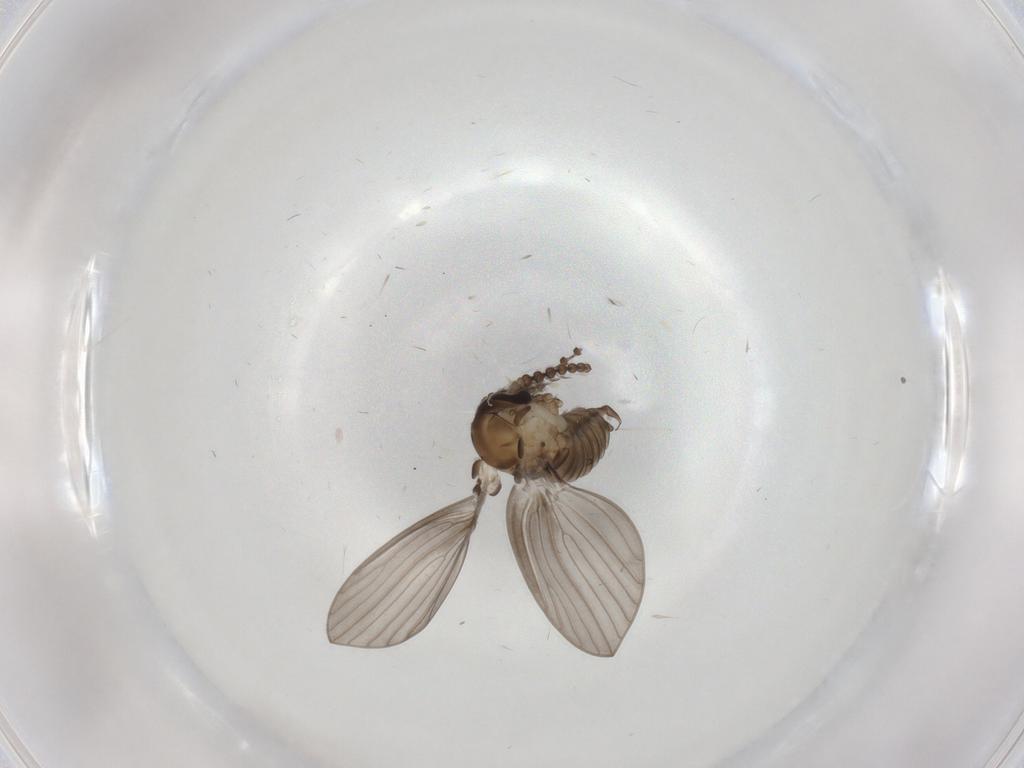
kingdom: Animalia
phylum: Arthropoda
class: Insecta
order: Diptera
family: Psychodidae
